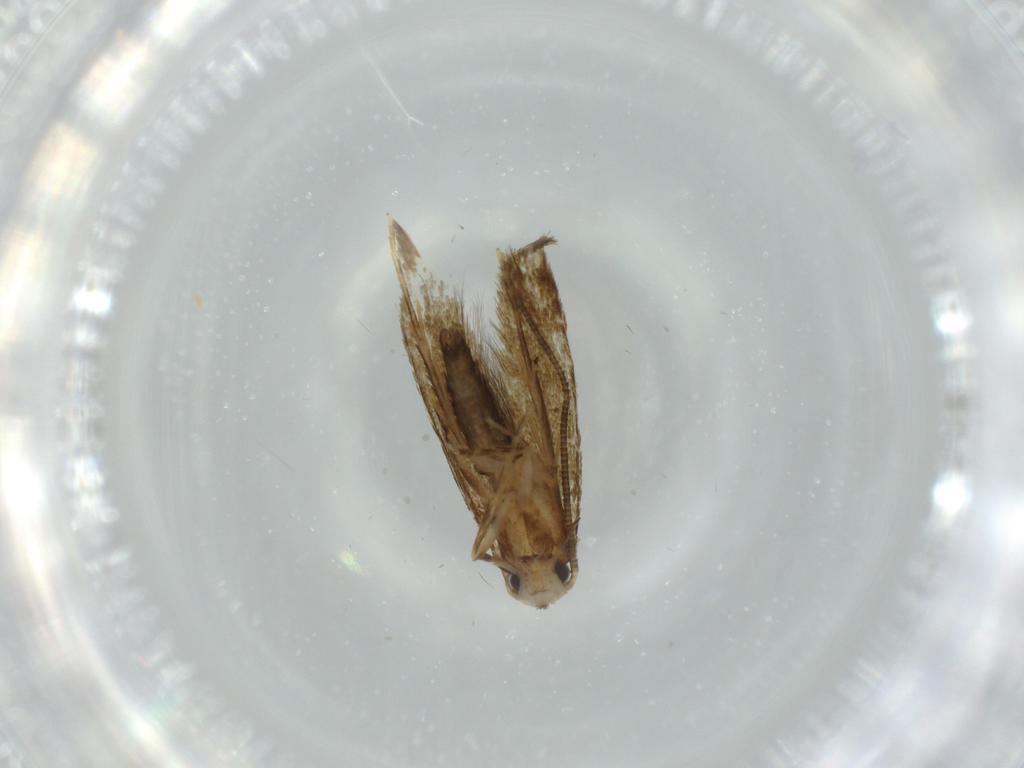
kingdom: Animalia
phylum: Arthropoda
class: Insecta
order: Lepidoptera
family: Tineidae
